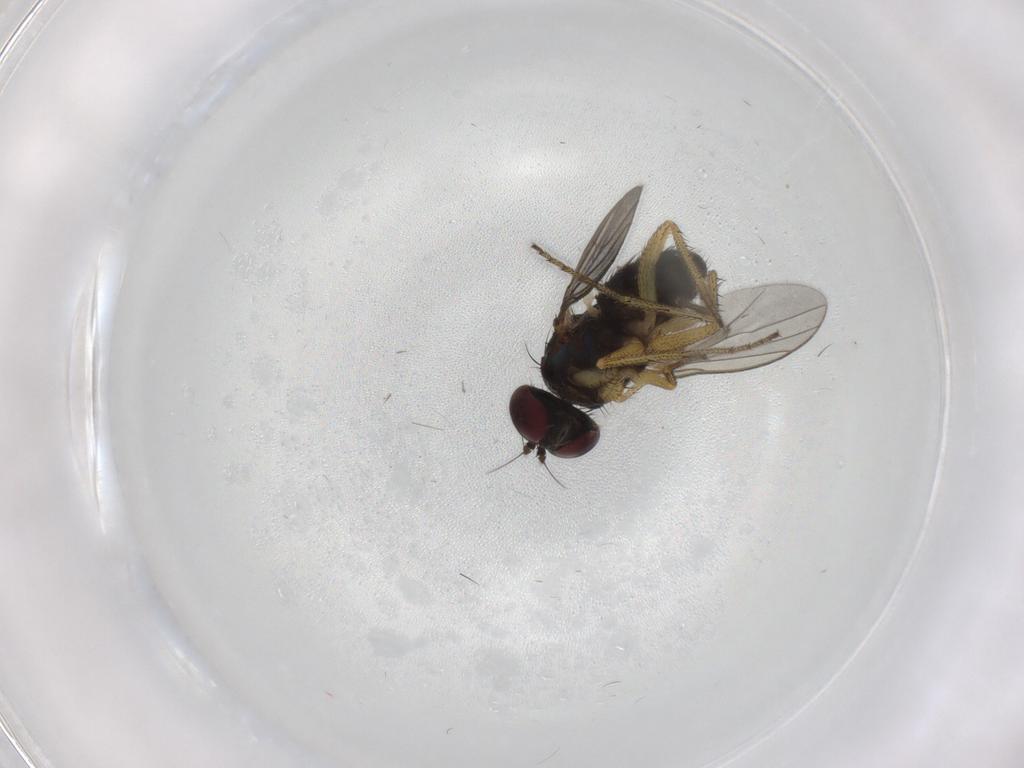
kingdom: Animalia
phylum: Arthropoda
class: Insecta
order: Diptera
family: Dolichopodidae
